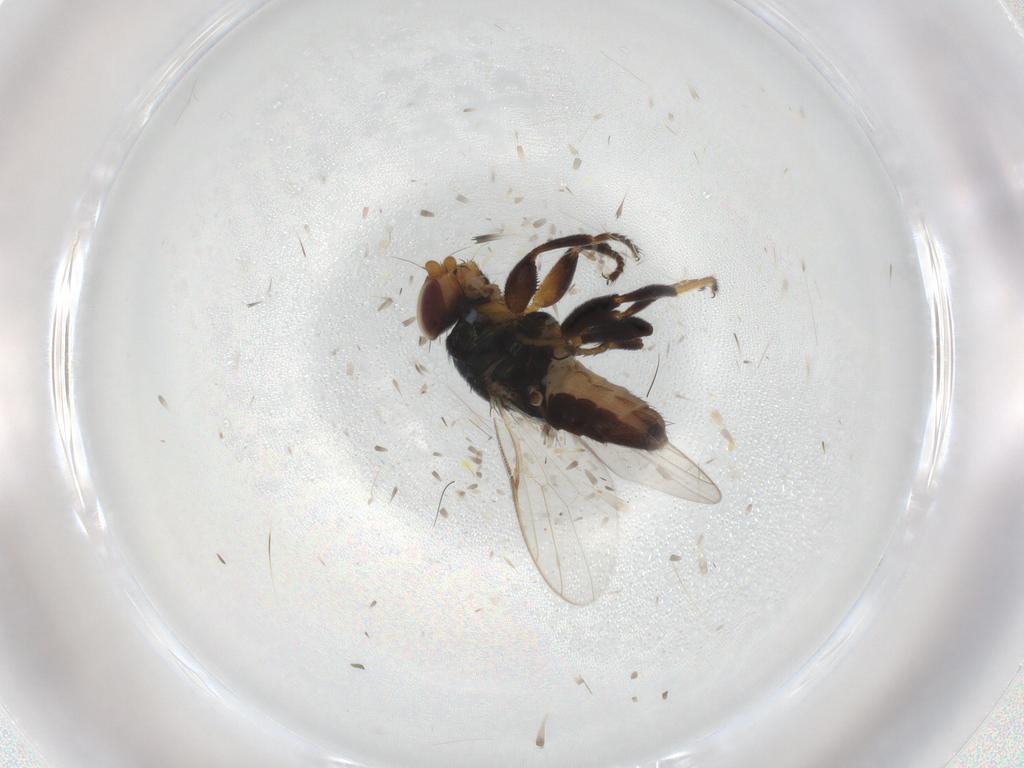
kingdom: Animalia
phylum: Arthropoda
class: Insecta
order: Diptera
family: Chloropidae
